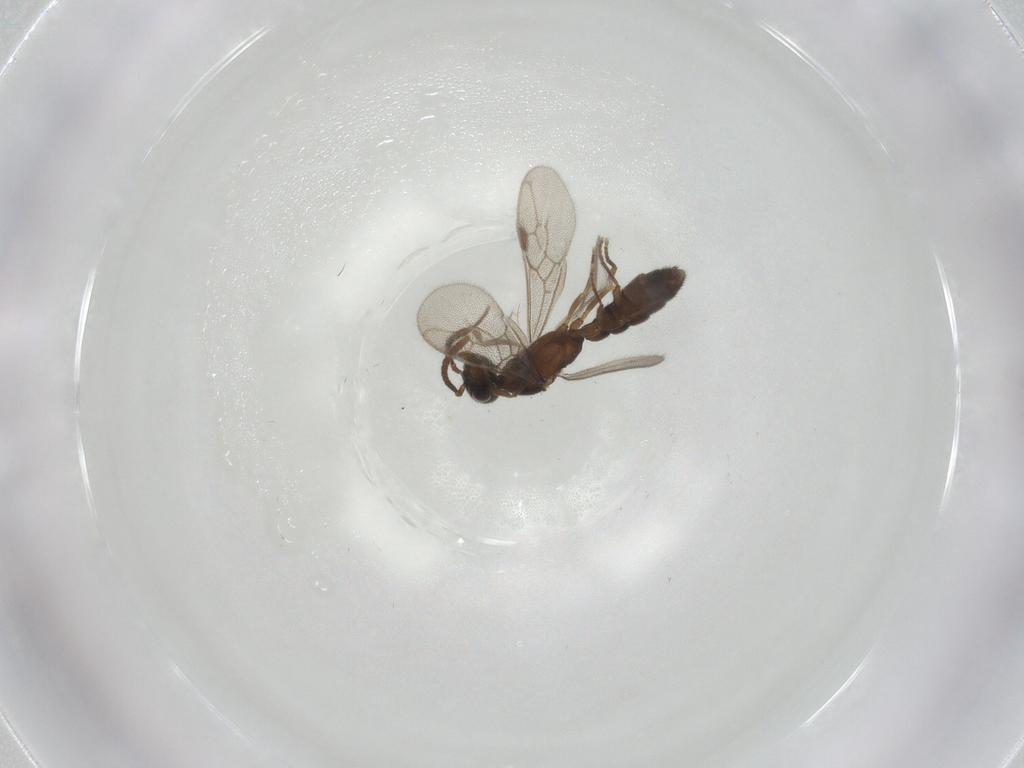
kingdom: Animalia
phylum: Arthropoda
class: Insecta
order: Hymenoptera
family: Formicidae
